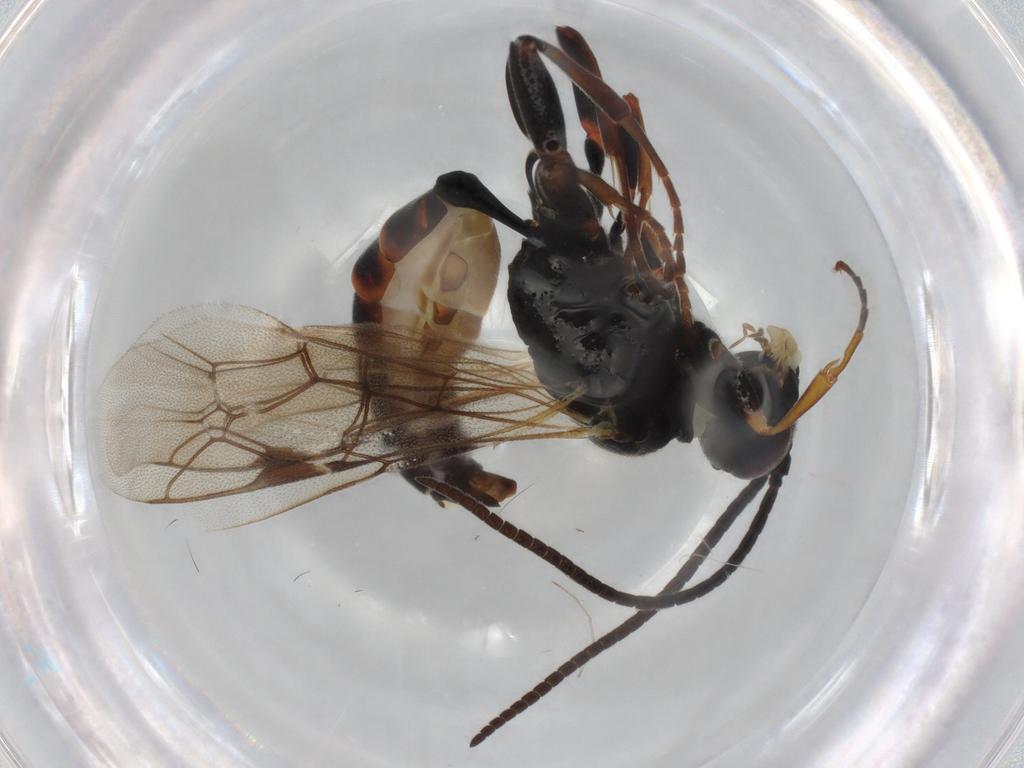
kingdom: Animalia
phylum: Arthropoda
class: Insecta
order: Hymenoptera
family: Ichneumonidae
